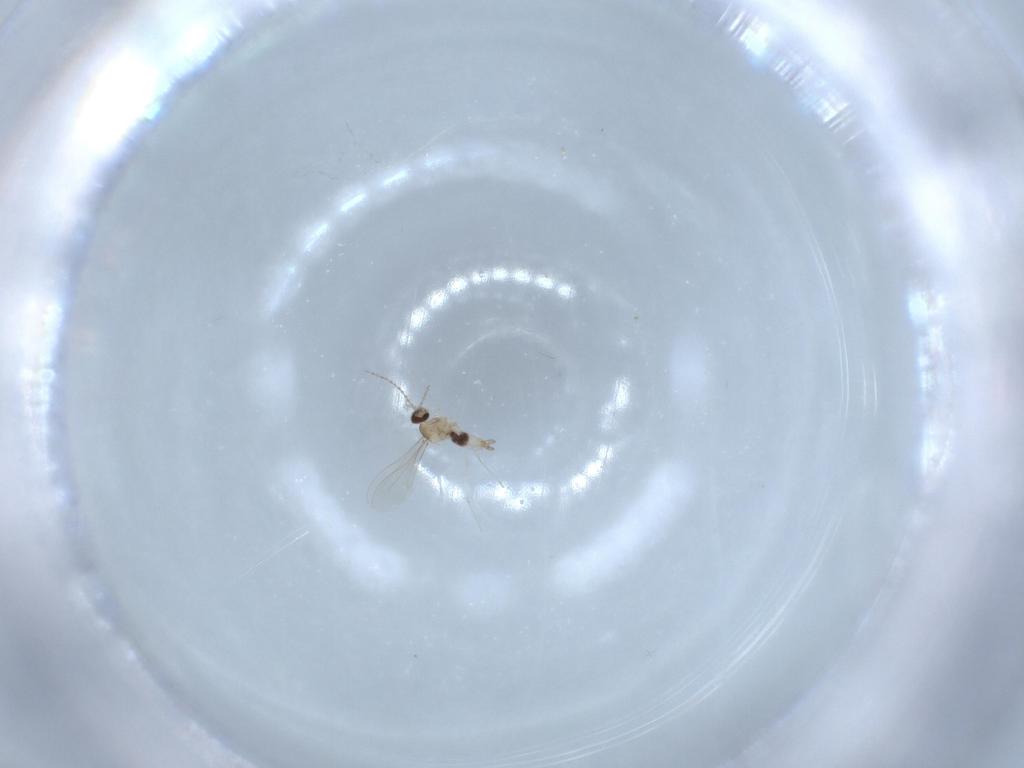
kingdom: Animalia
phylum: Arthropoda
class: Insecta
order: Diptera
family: Cecidomyiidae
